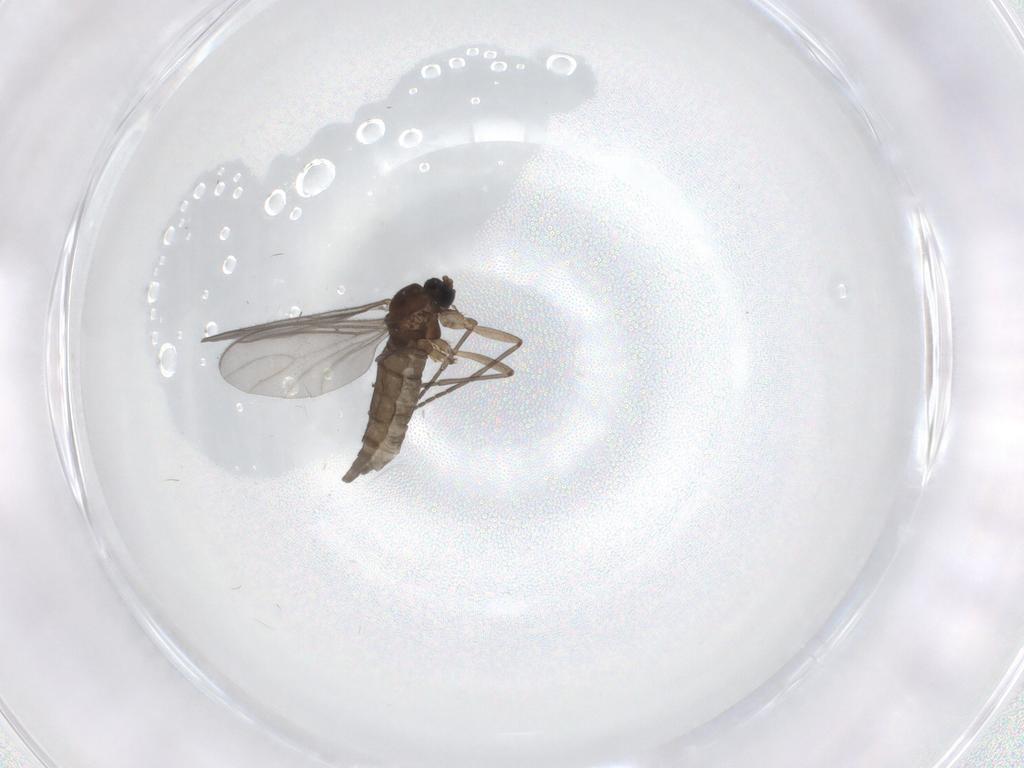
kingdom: Animalia
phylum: Arthropoda
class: Insecta
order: Diptera
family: Sciaridae
